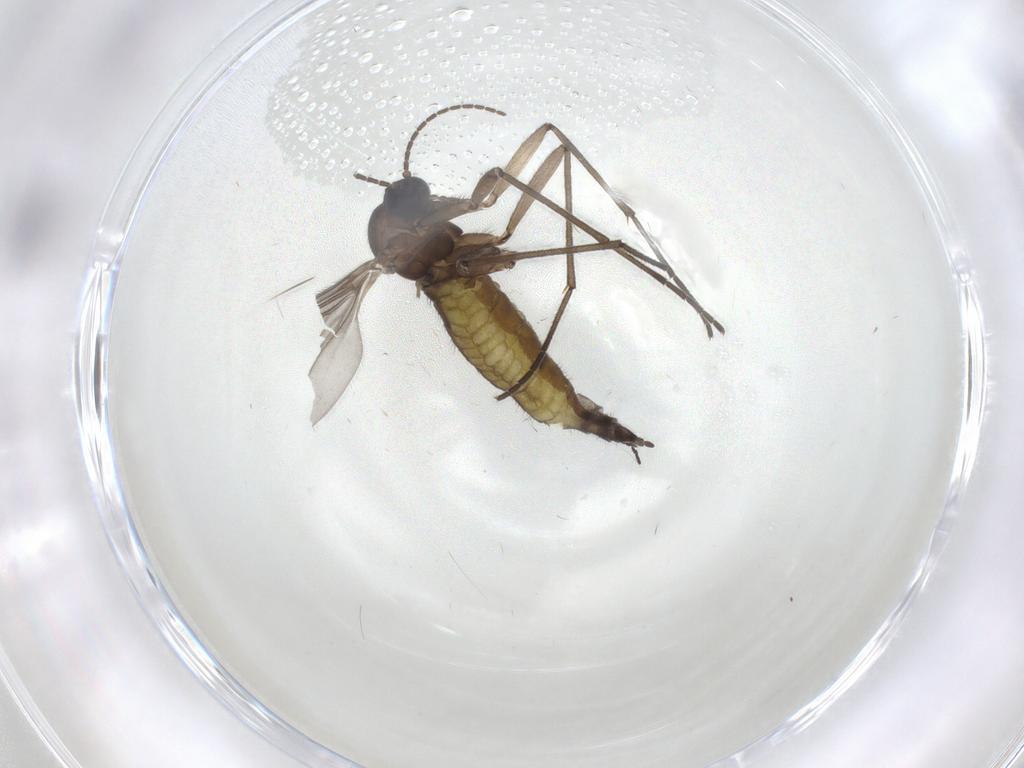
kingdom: Animalia
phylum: Arthropoda
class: Insecta
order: Diptera
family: Sciaridae
